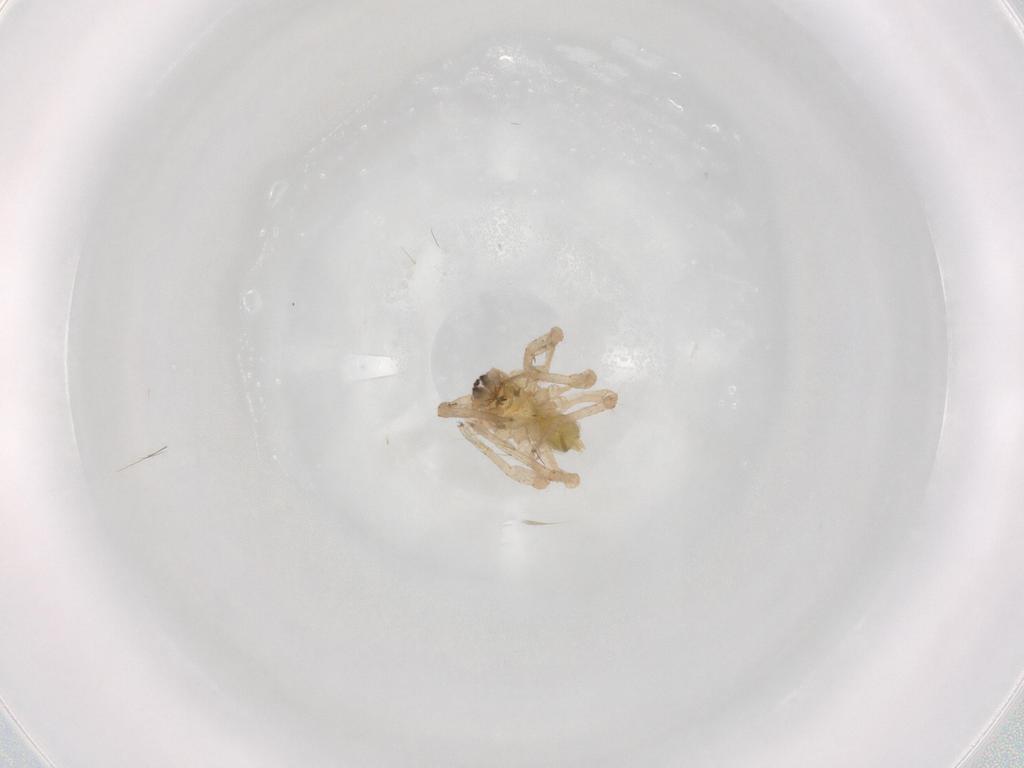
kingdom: Animalia
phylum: Arthropoda
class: Arachnida
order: Araneae
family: Anyphaenidae
